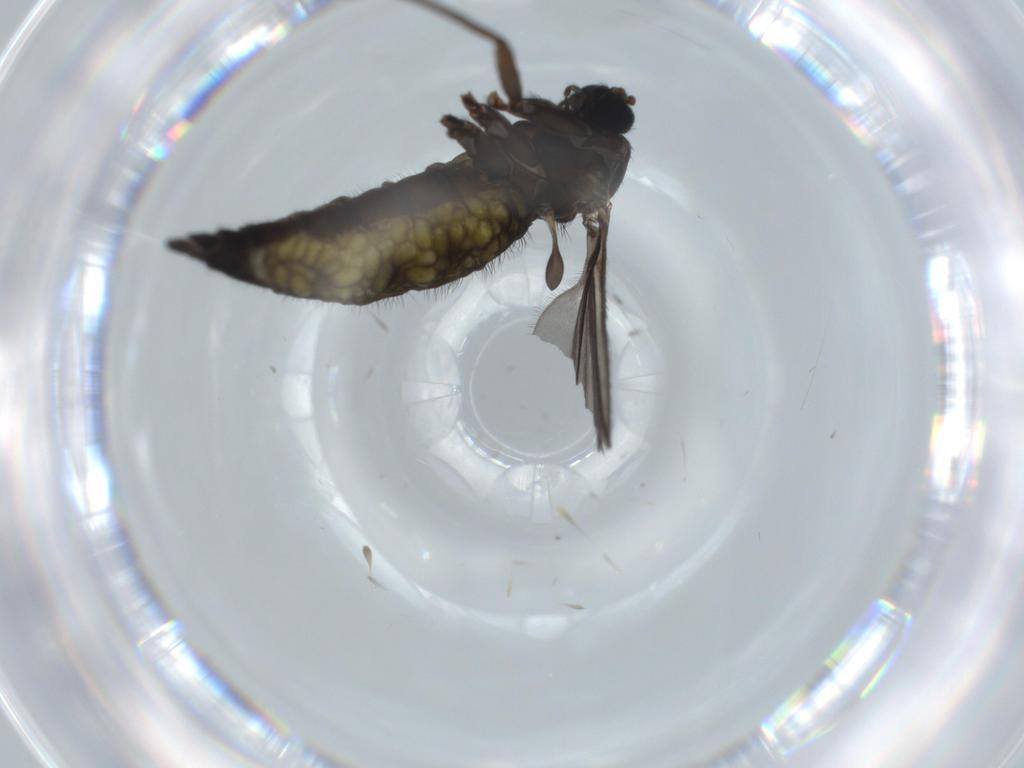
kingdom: Animalia
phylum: Arthropoda
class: Insecta
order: Diptera
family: Sciaridae
